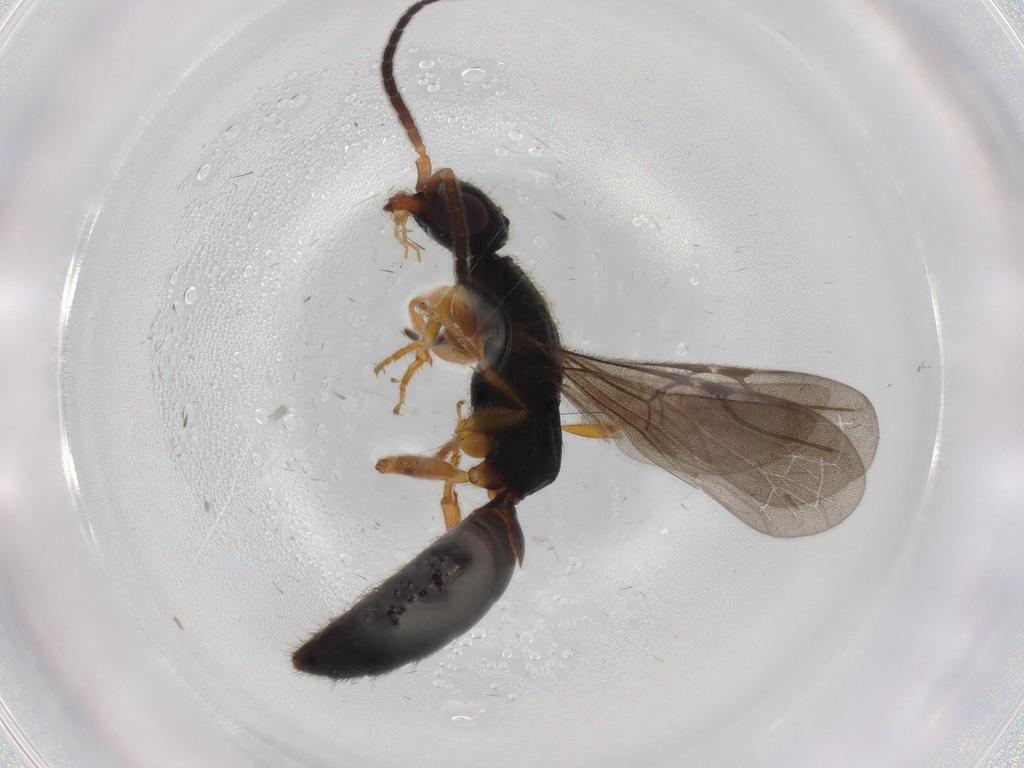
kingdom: Animalia
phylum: Arthropoda
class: Insecta
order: Hymenoptera
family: Bethylidae
